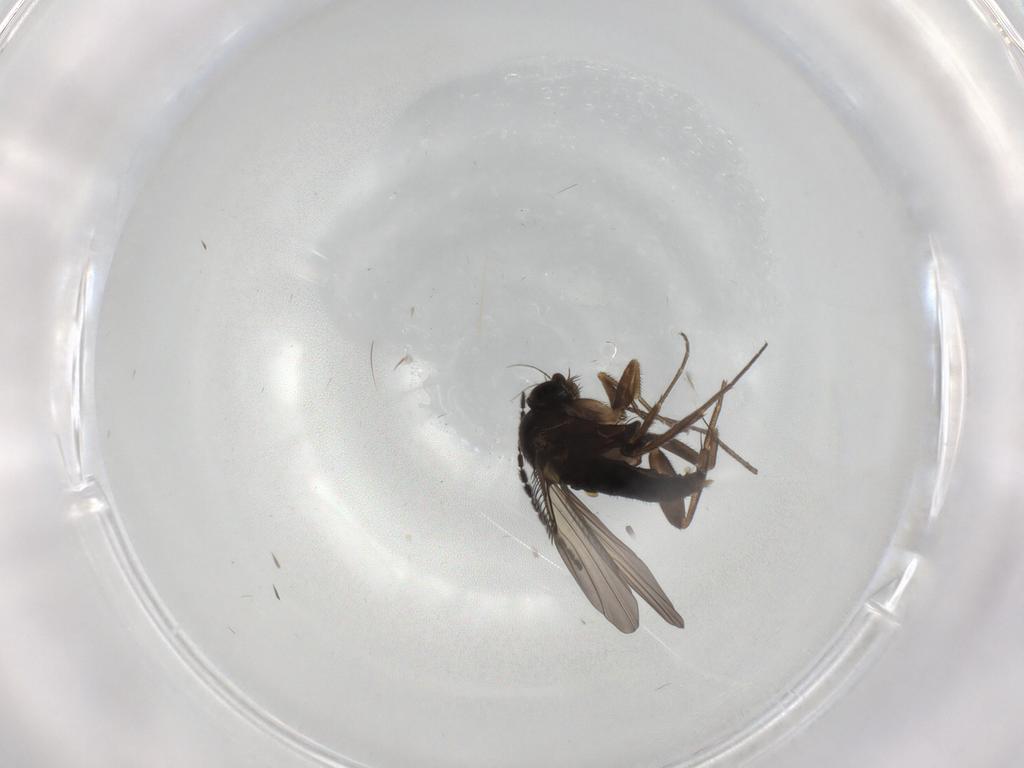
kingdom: Animalia
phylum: Arthropoda
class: Insecta
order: Diptera
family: Phoridae
